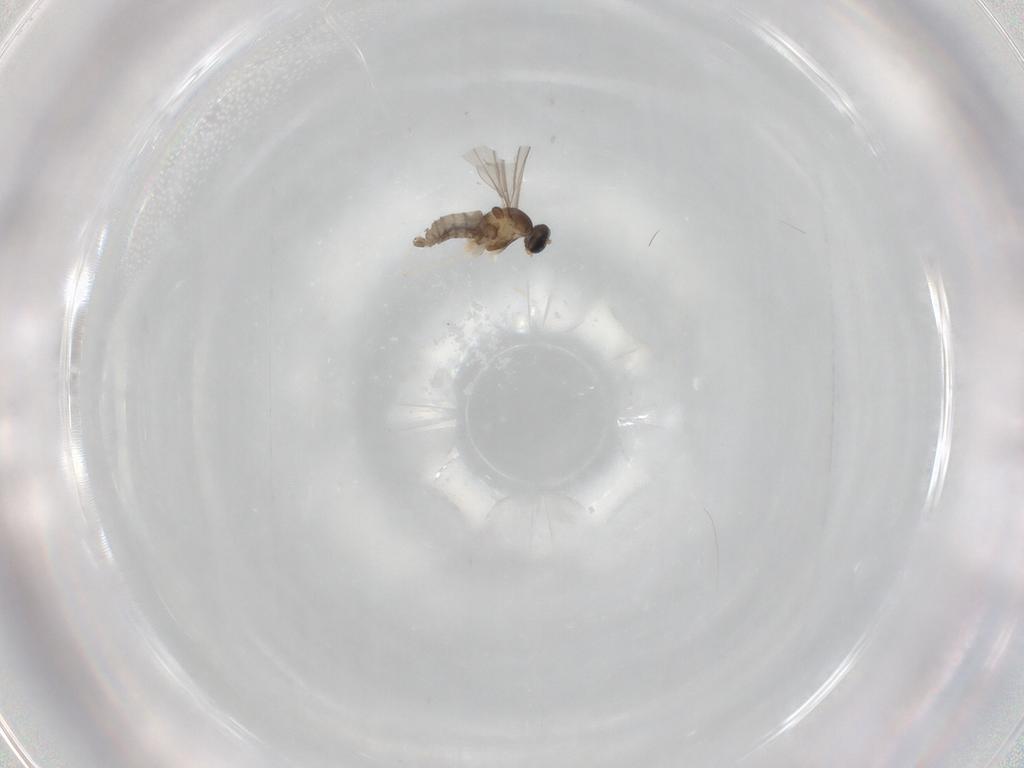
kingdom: Animalia
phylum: Arthropoda
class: Insecta
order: Diptera
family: Cecidomyiidae
